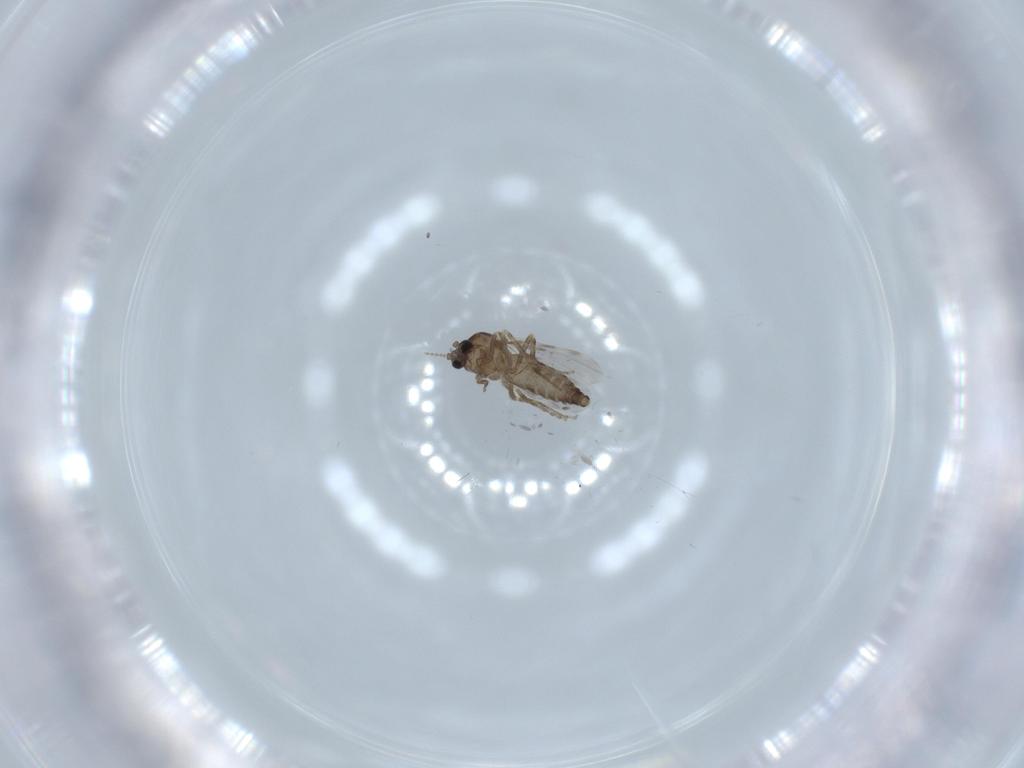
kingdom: Animalia
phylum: Arthropoda
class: Insecta
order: Diptera
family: Ceratopogonidae
